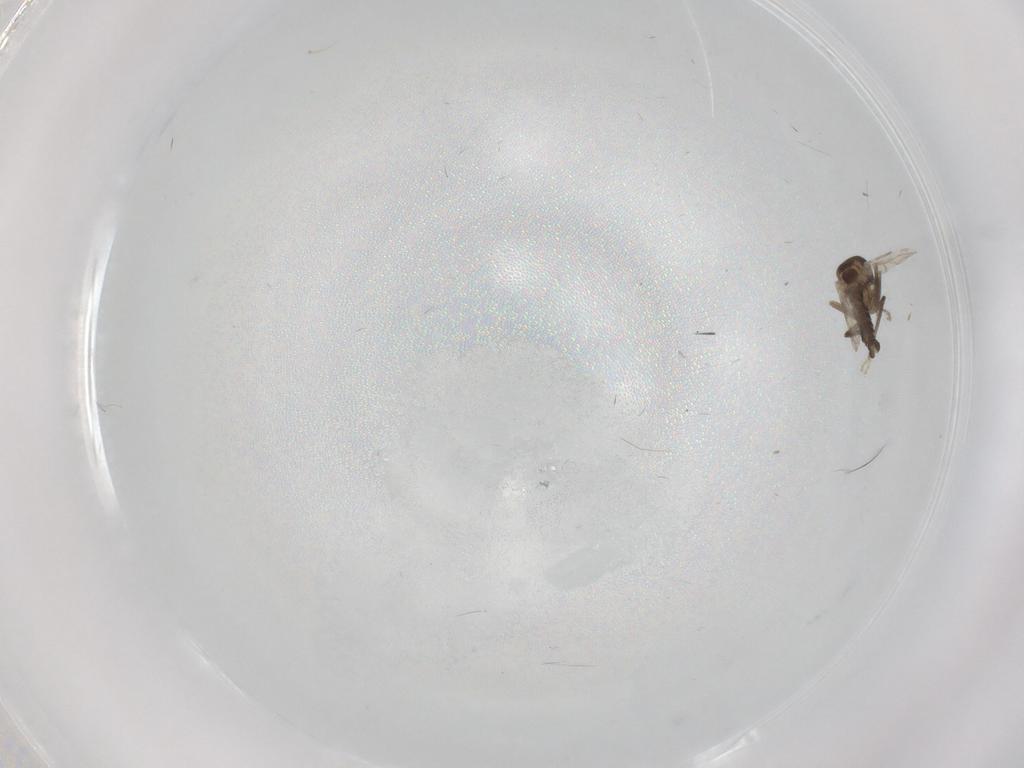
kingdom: Animalia
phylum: Arthropoda
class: Insecta
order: Diptera
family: Ceratopogonidae
